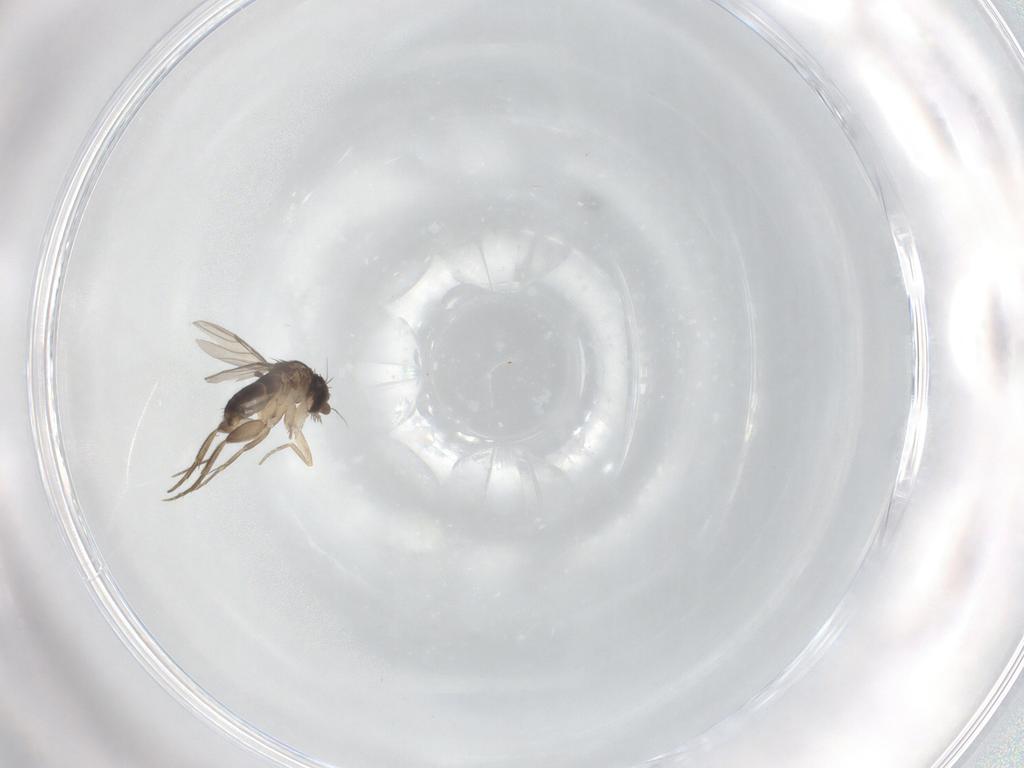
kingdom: Animalia
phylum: Arthropoda
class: Insecta
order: Diptera
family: Phoridae
